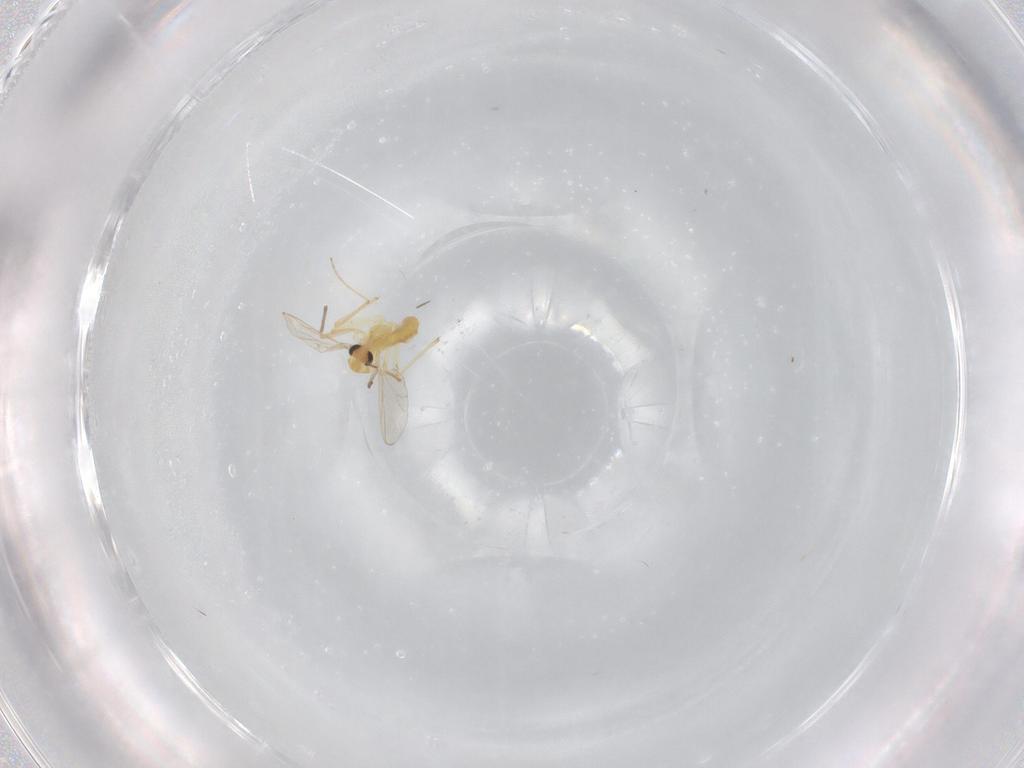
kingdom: Animalia
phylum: Arthropoda
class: Insecta
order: Diptera
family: Chironomidae
